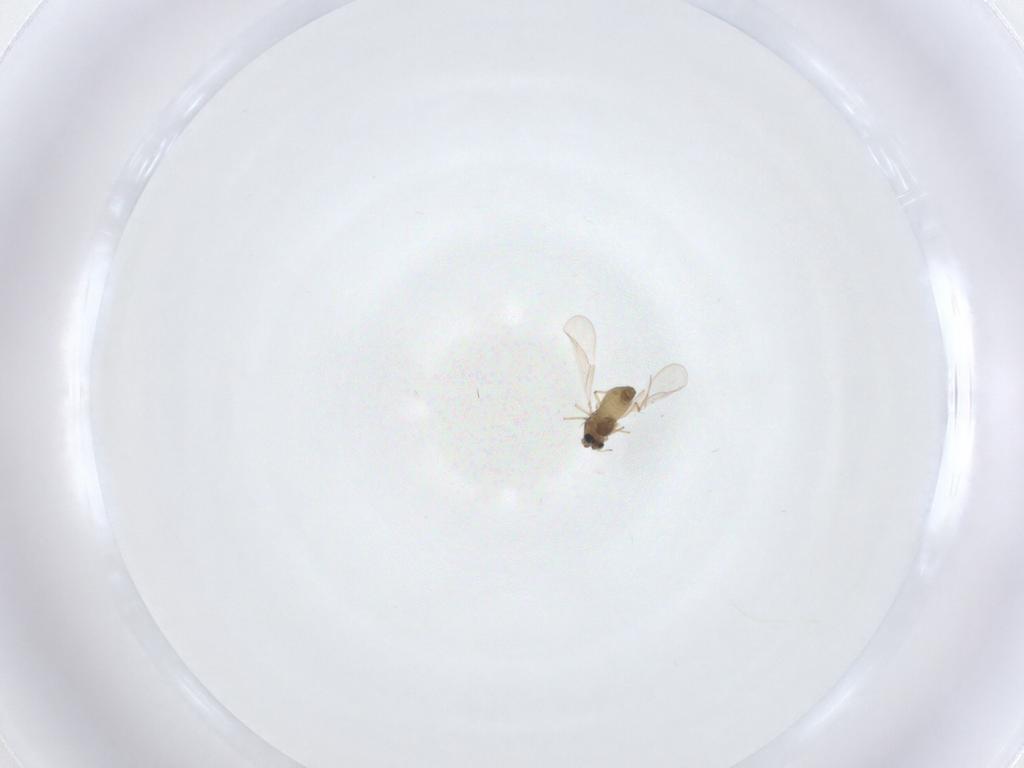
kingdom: Animalia
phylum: Arthropoda
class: Insecta
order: Diptera
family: Chironomidae
